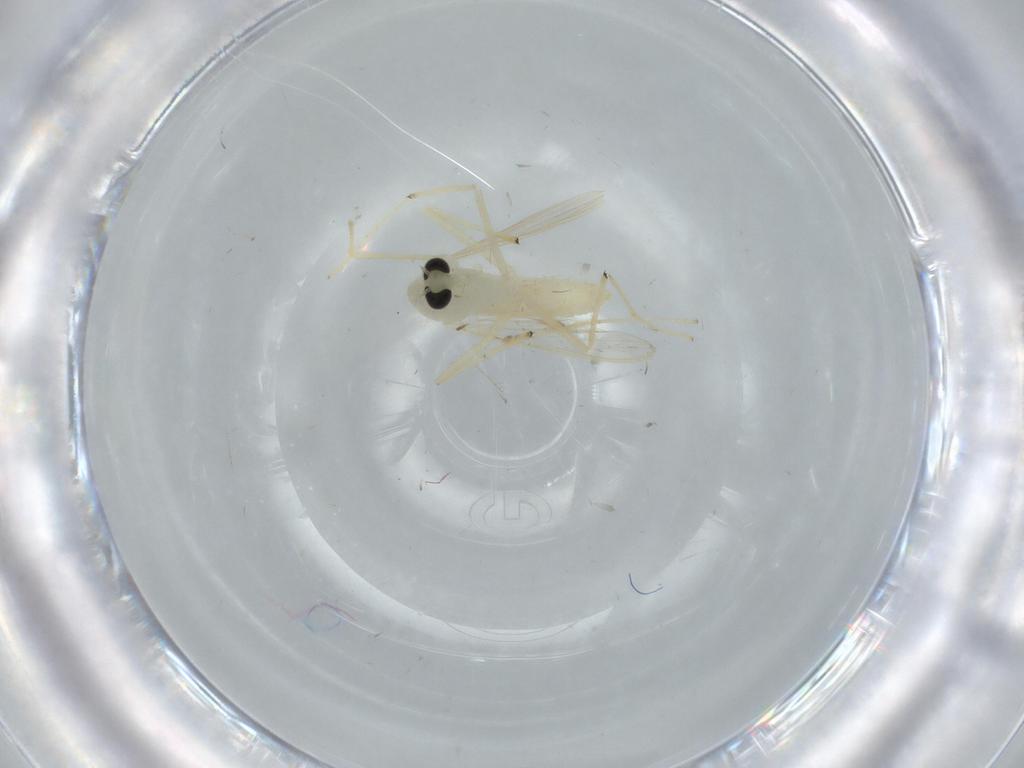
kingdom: Animalia
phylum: Arthropoda
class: Insecta
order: Diptera
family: Chironomidae
